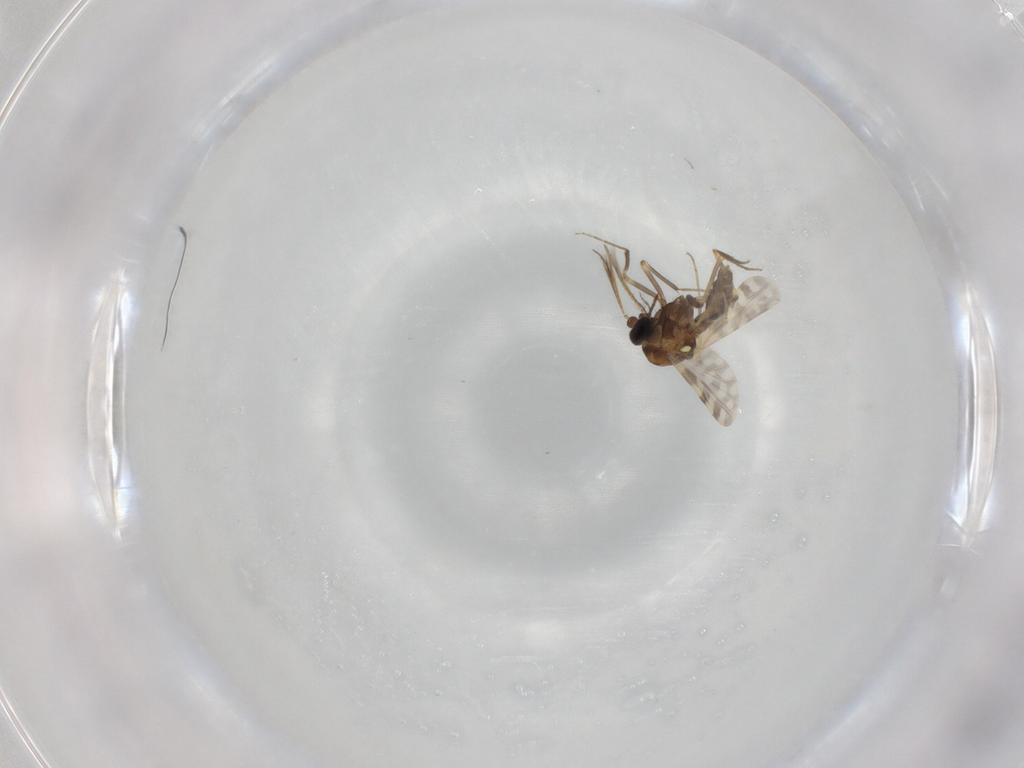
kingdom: Animalia
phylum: Arthropoda
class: Insecta
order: Diptera
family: Ceratopogonidae
